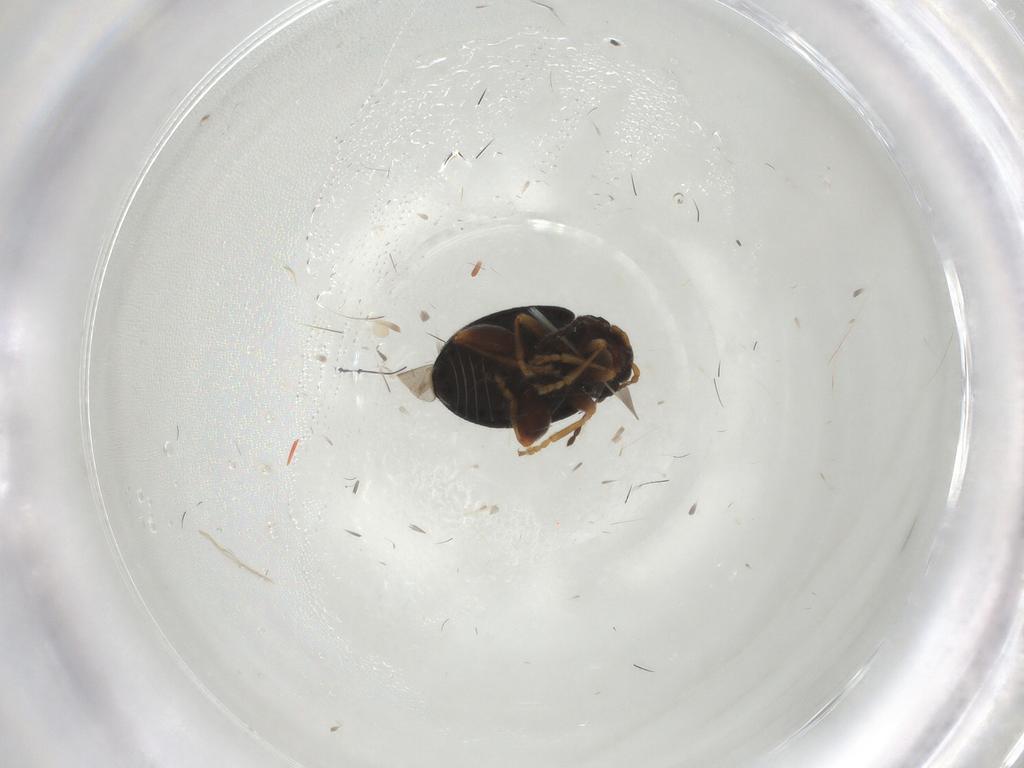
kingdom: Animalia
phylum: Arthropoda
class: Insecta
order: Coleoptera
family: Chrysomelidae
